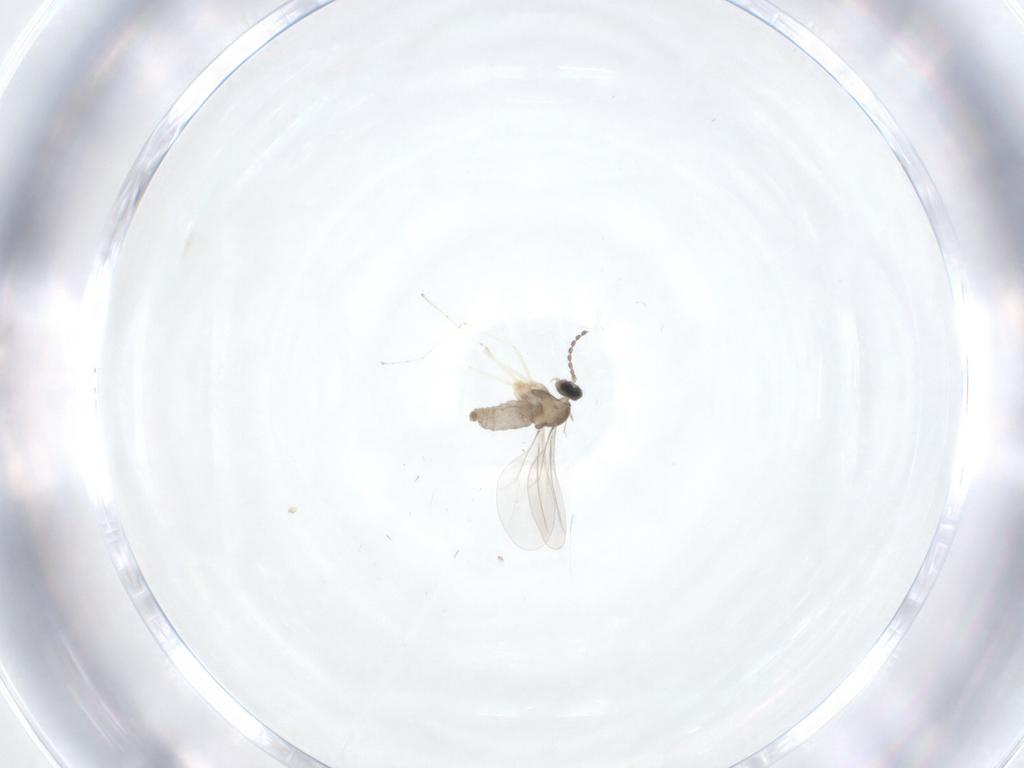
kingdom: Animalia
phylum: Arthropoda
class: Insecta
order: Diptera
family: Cecidomyiidae
